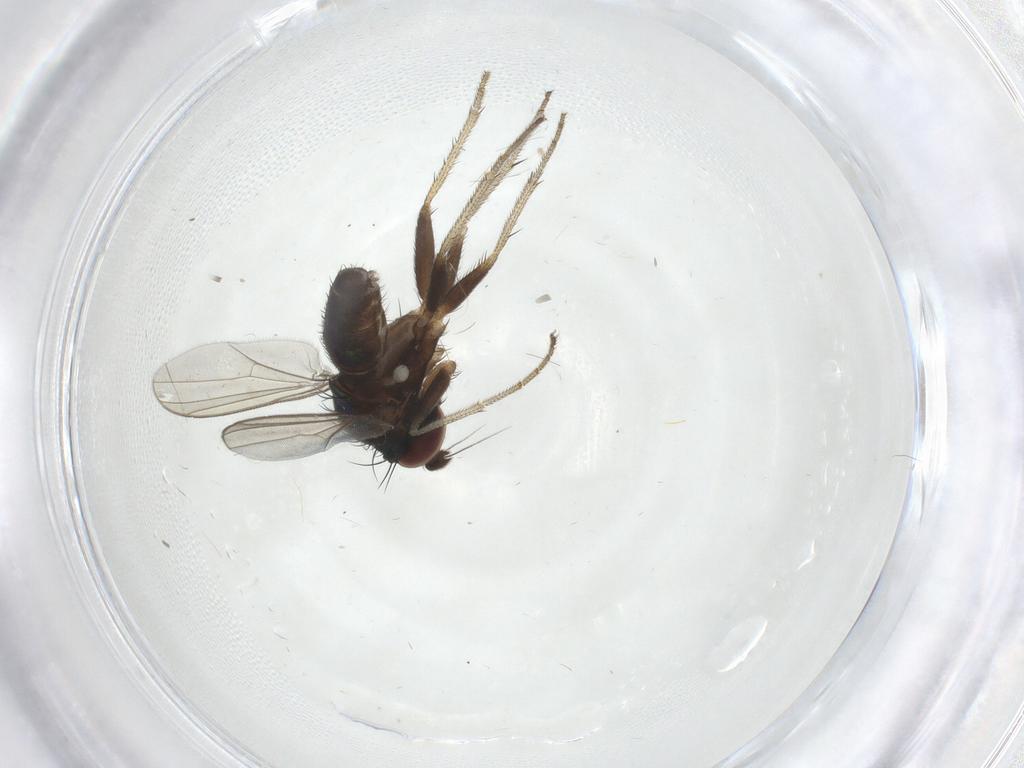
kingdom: Animalia
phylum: Arthropoda
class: Insecta
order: Diptera
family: Dolichopodidae
